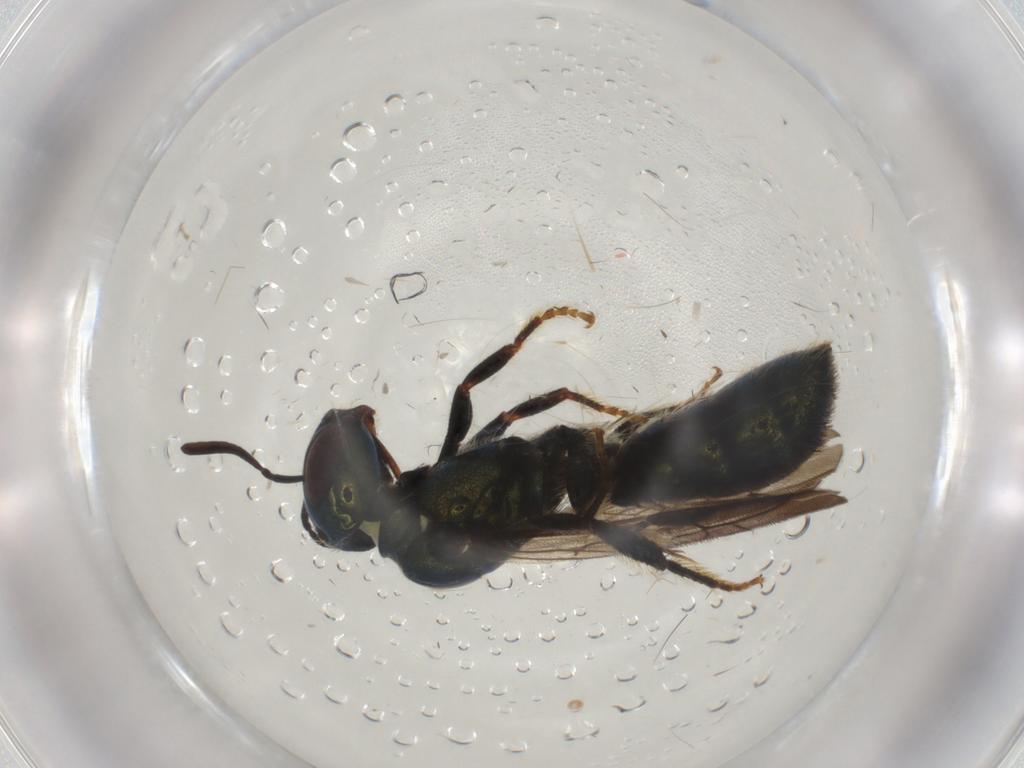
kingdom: Animalia
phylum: Arthropoda
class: Insecta
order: Hymenoptera
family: Apidae
